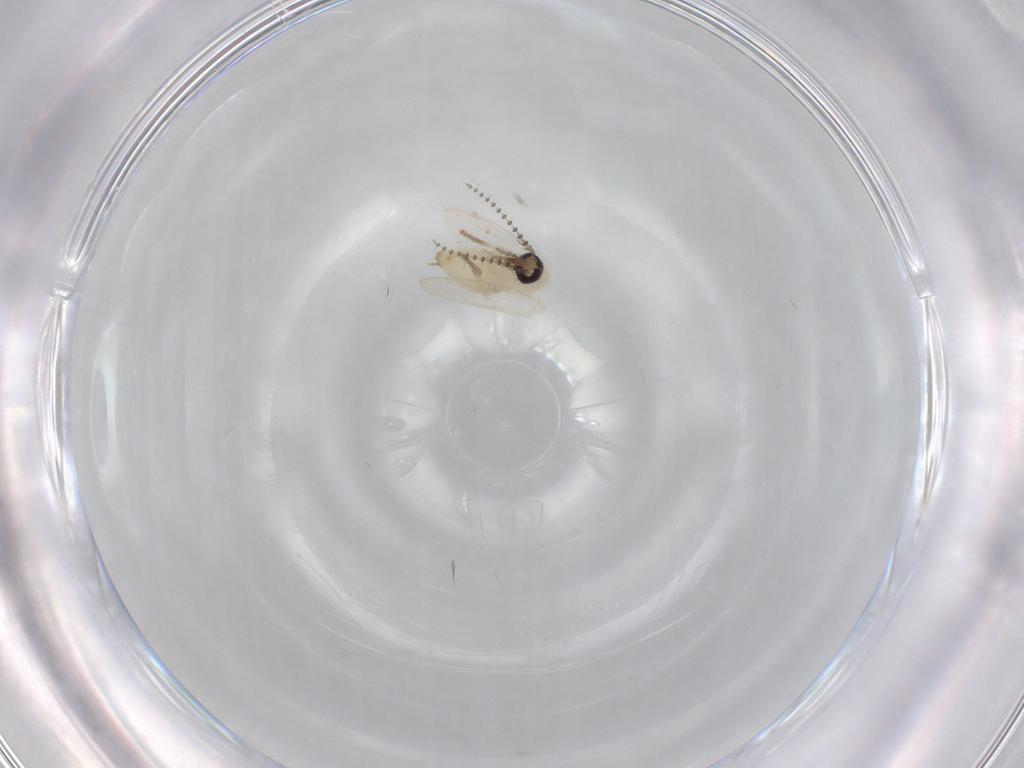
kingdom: Animalia
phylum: Arthropoda
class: Insecta
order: Diptera
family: Psychodidae
